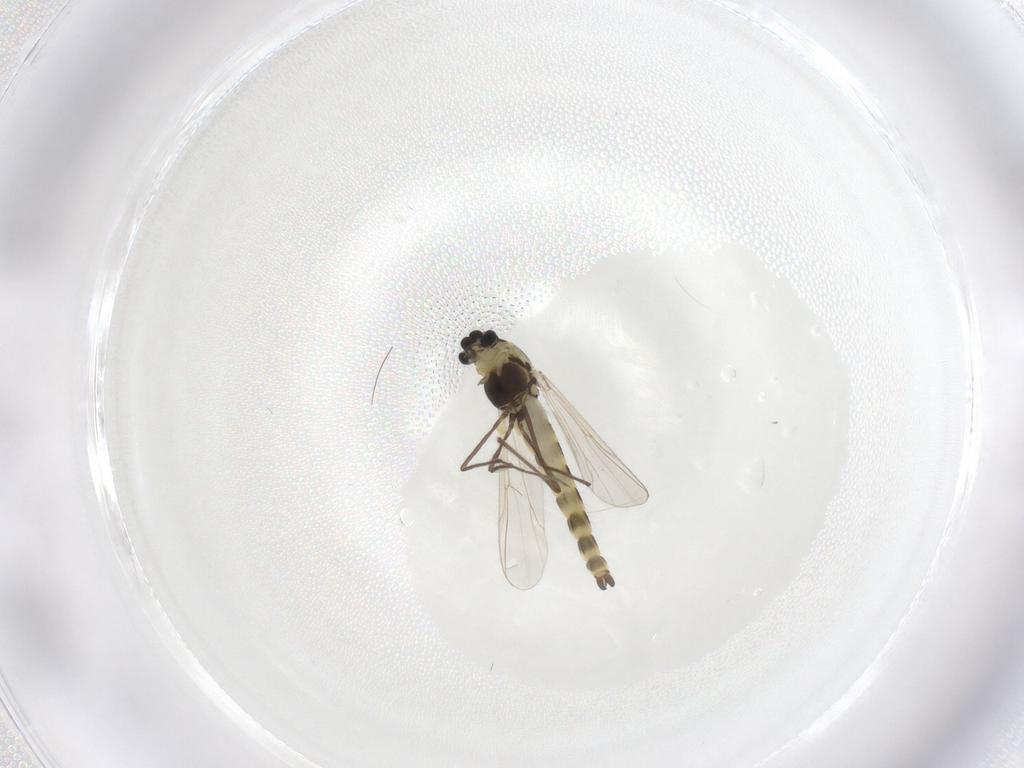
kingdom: Animalia
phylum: Arthropoda
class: Insecta
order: Diptera
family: Chironomidae
